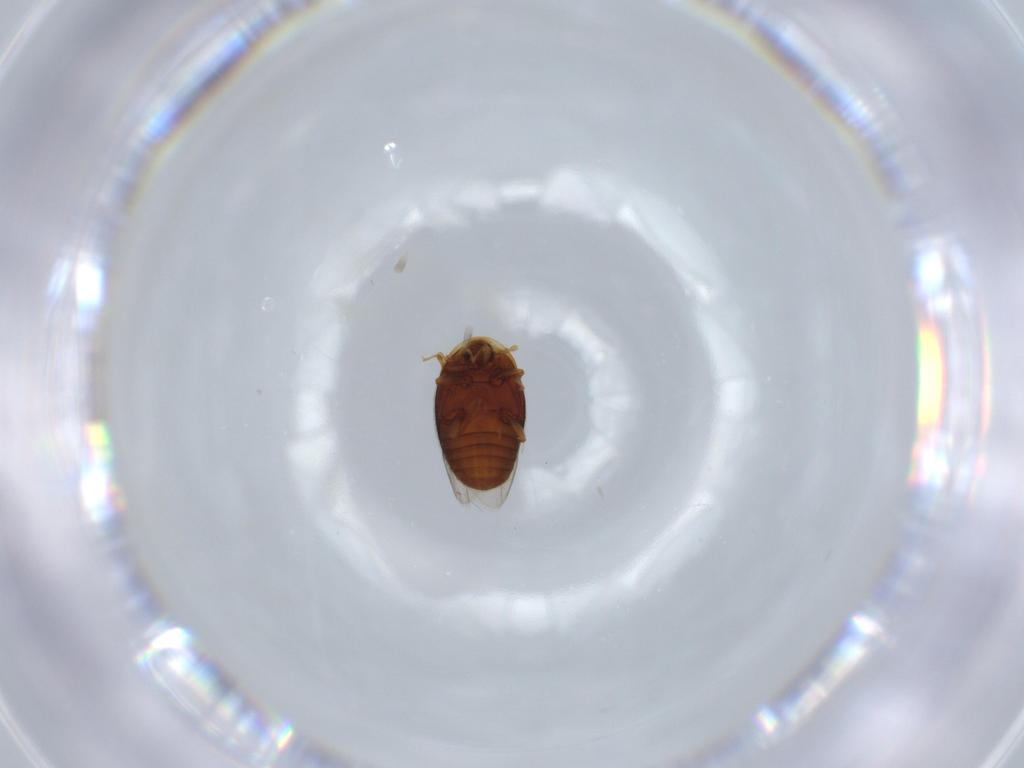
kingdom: Animalia
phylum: Arthropoda
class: Insecta
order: Coleoptera
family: Corylophidae
